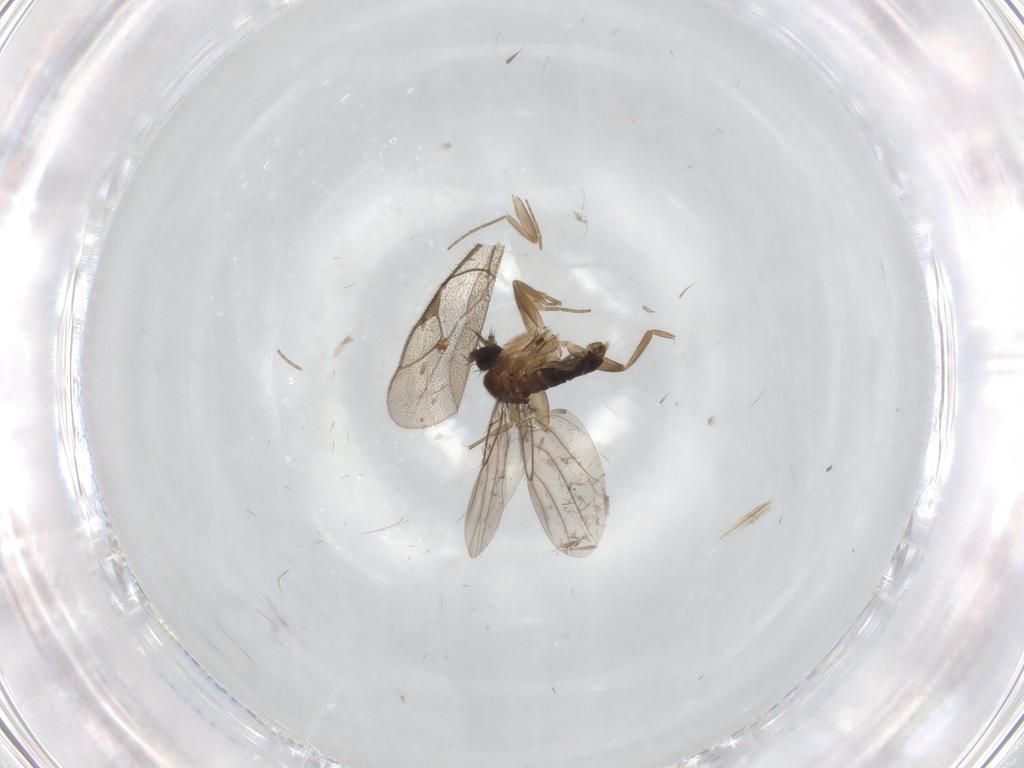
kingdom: Animalia
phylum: Arthropoda
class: Insecta
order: Diptera
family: Phoridae
